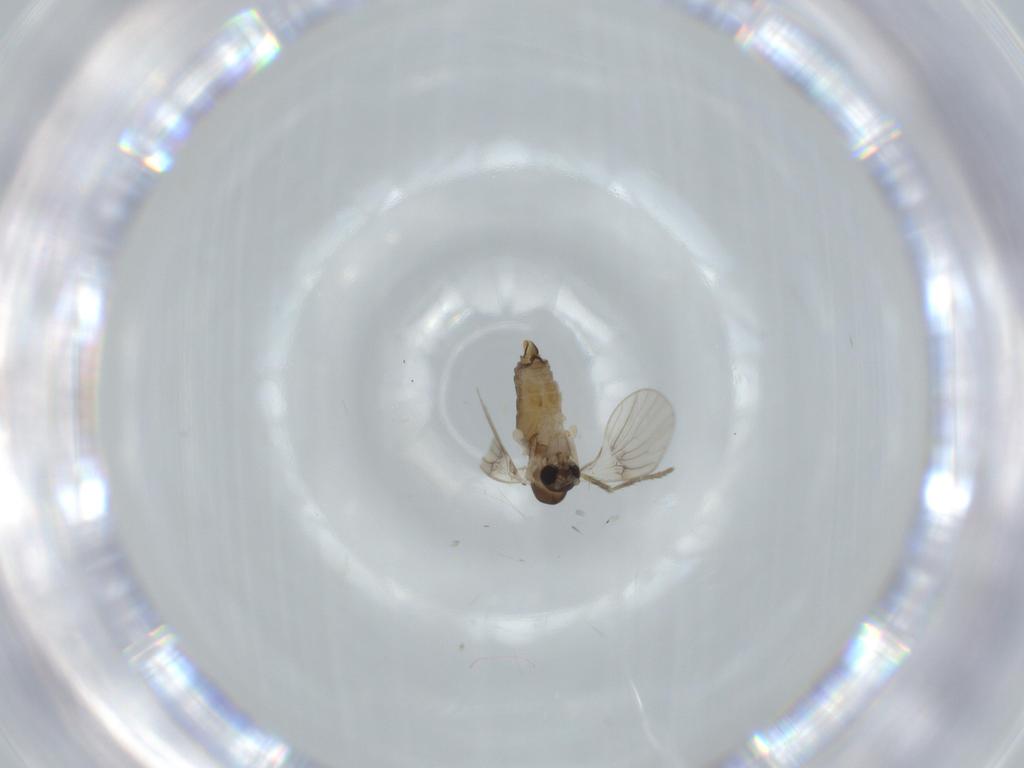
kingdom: Animalia
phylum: Arthropoda
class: Insecta
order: Diptera
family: Psychodidae
